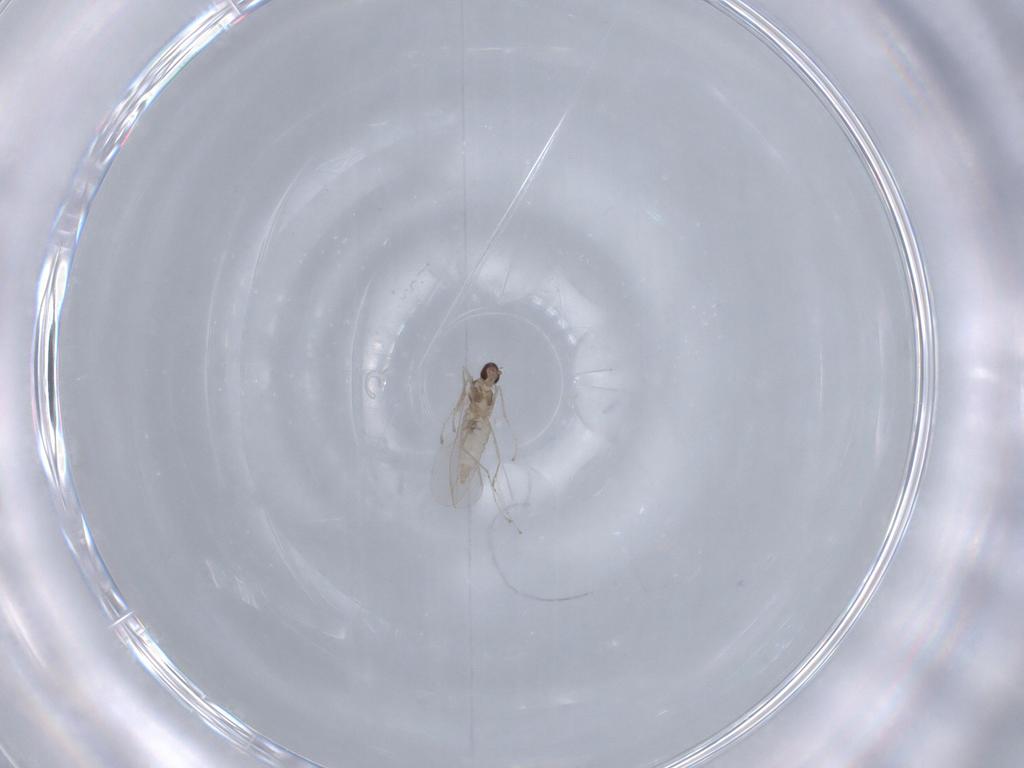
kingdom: Animalia
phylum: Arthropoda
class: Insecta
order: Diptera
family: Cecidomyiidae
